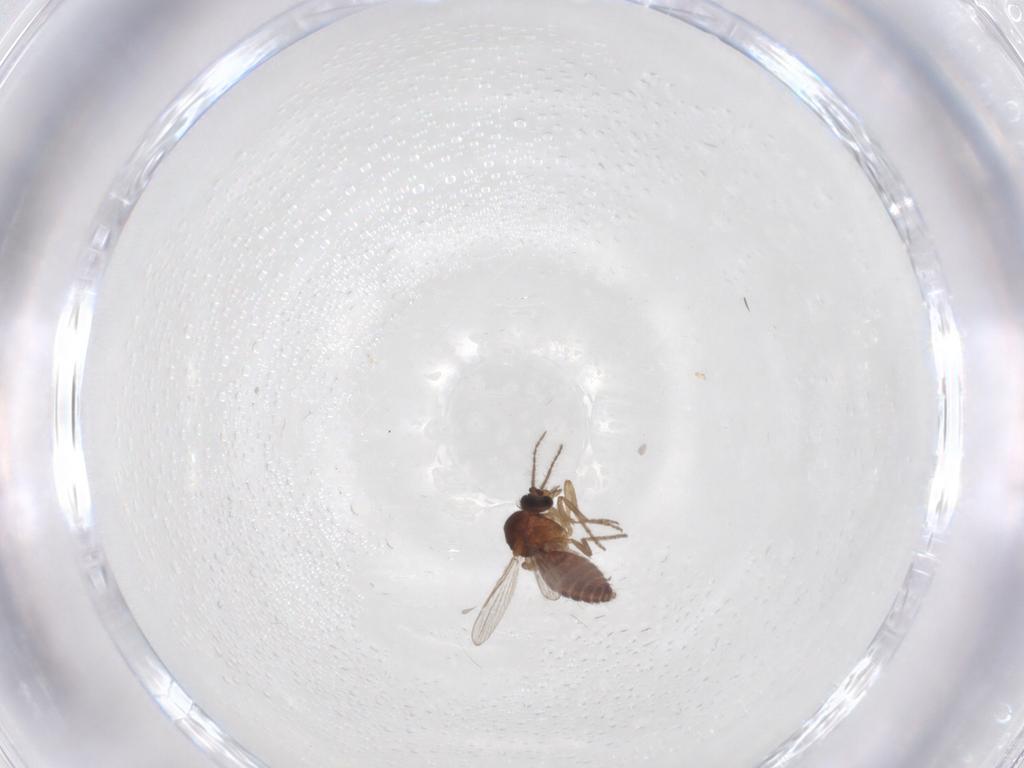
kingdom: Animalia
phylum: Arthropoda
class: Insecta
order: Diptera
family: Ceratopogonidae
